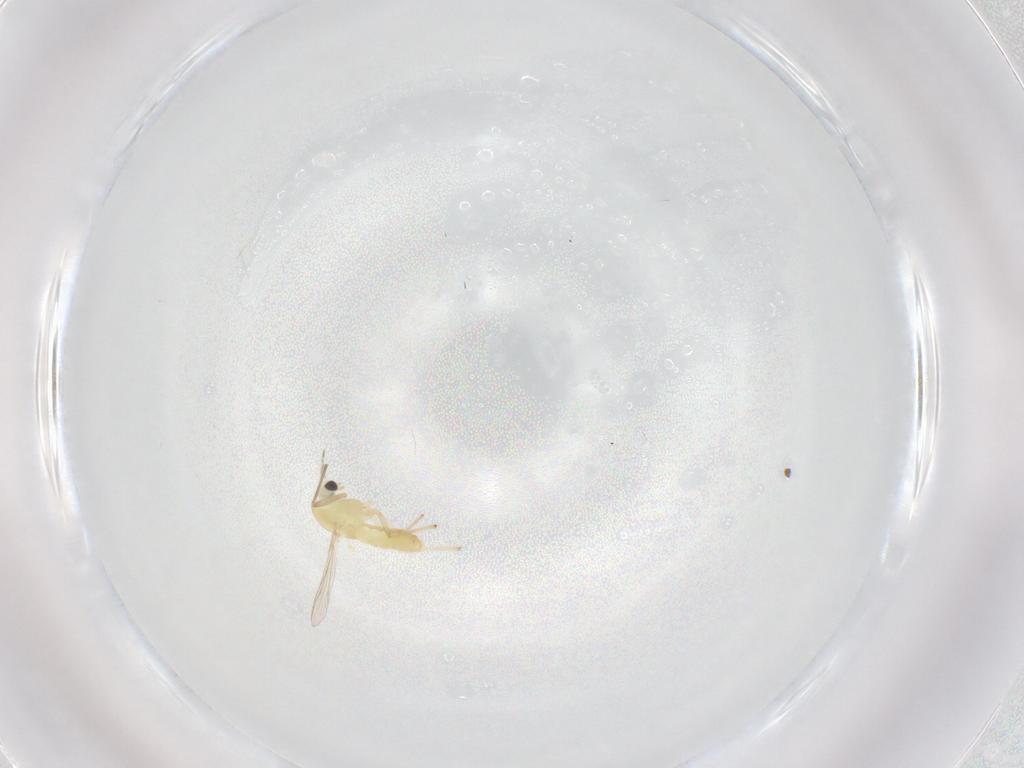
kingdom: Animalia
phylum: Arthropoda
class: Insecta
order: Diptera
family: Chironomidae
